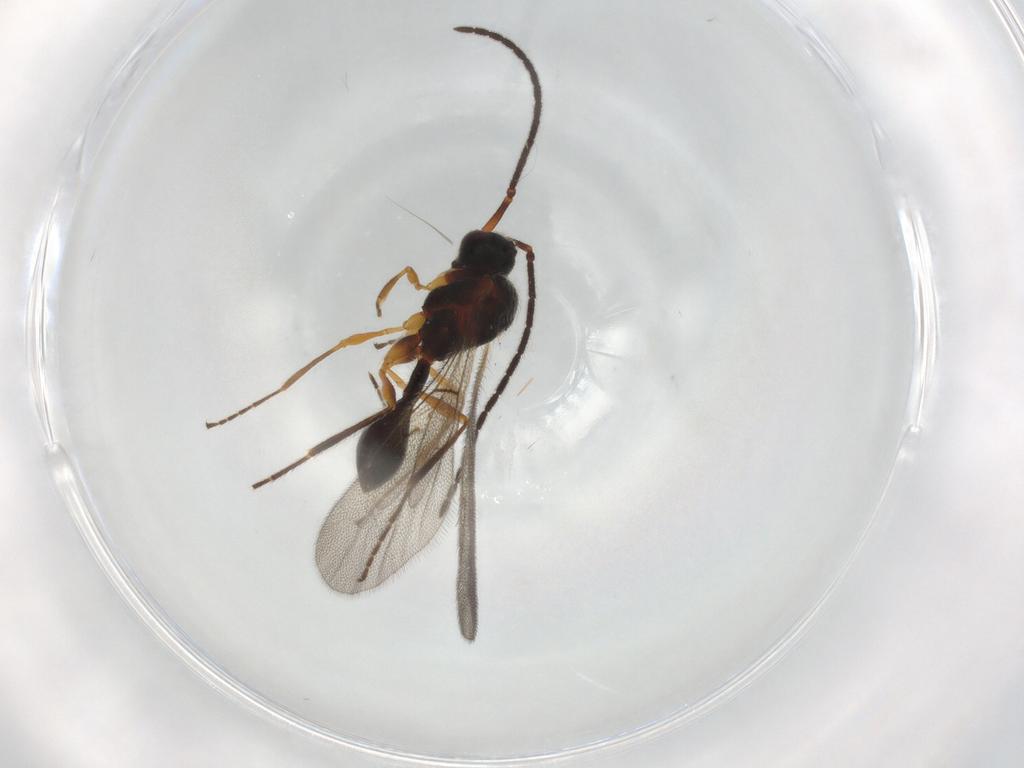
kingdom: Animalia
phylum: Arthropoda
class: Insecta
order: Hymenoptera
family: Diapriidae
